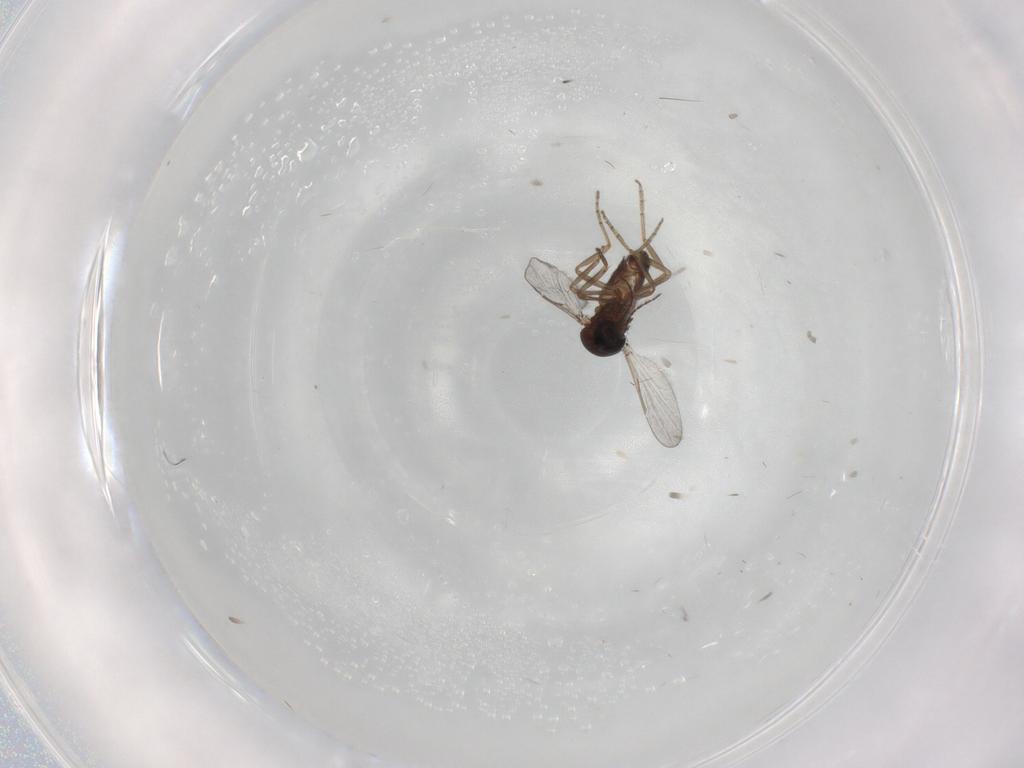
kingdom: Animalia
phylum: Arthropoda
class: Insecta
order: Diptera
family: Ceratopogonidae
